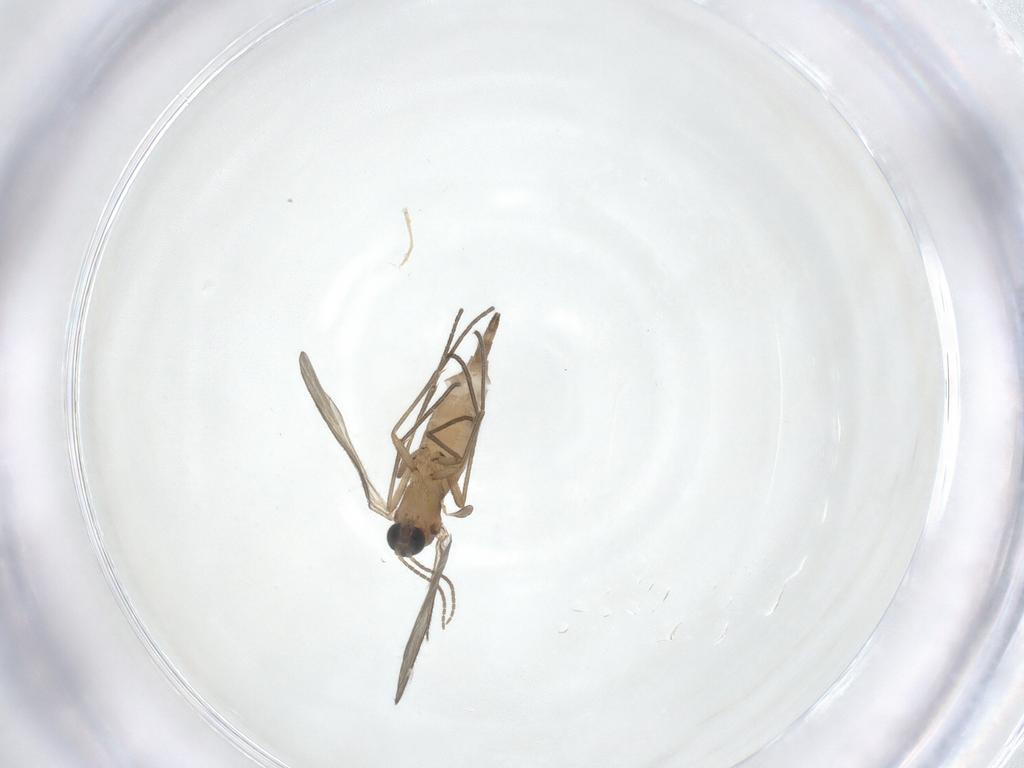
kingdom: Animalia
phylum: Arthropoda
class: Insecta
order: Diptera
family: Sciaridae
